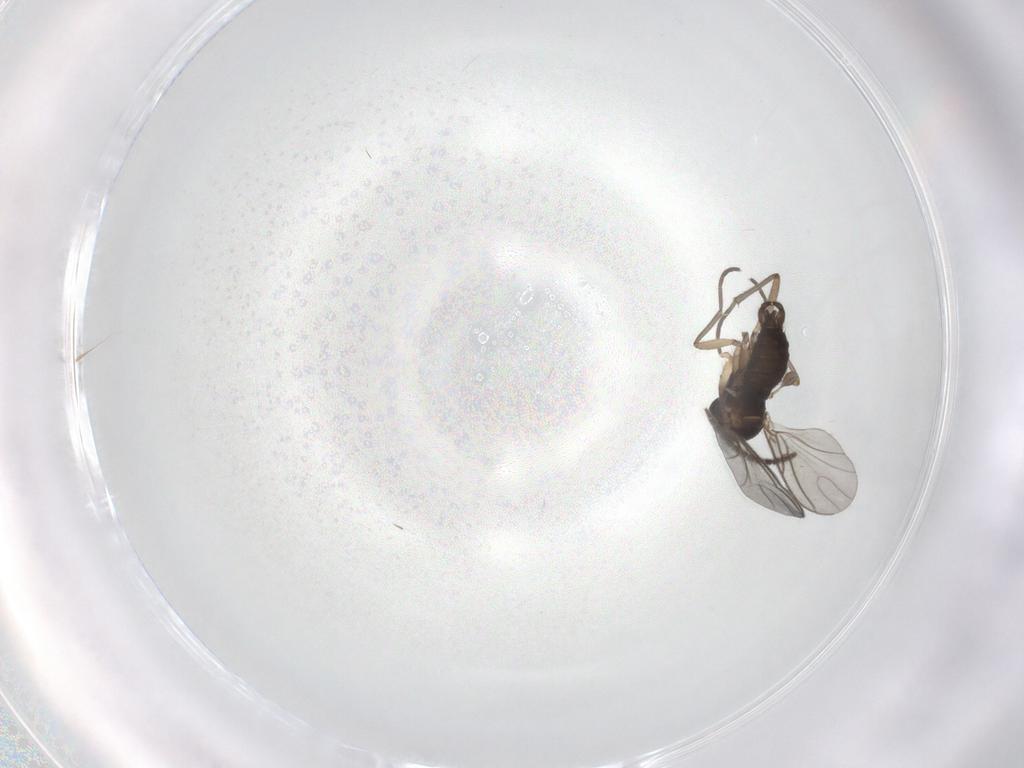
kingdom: Animalia
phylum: Arthropoda
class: Insecta
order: Diptera
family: Sciaridae
